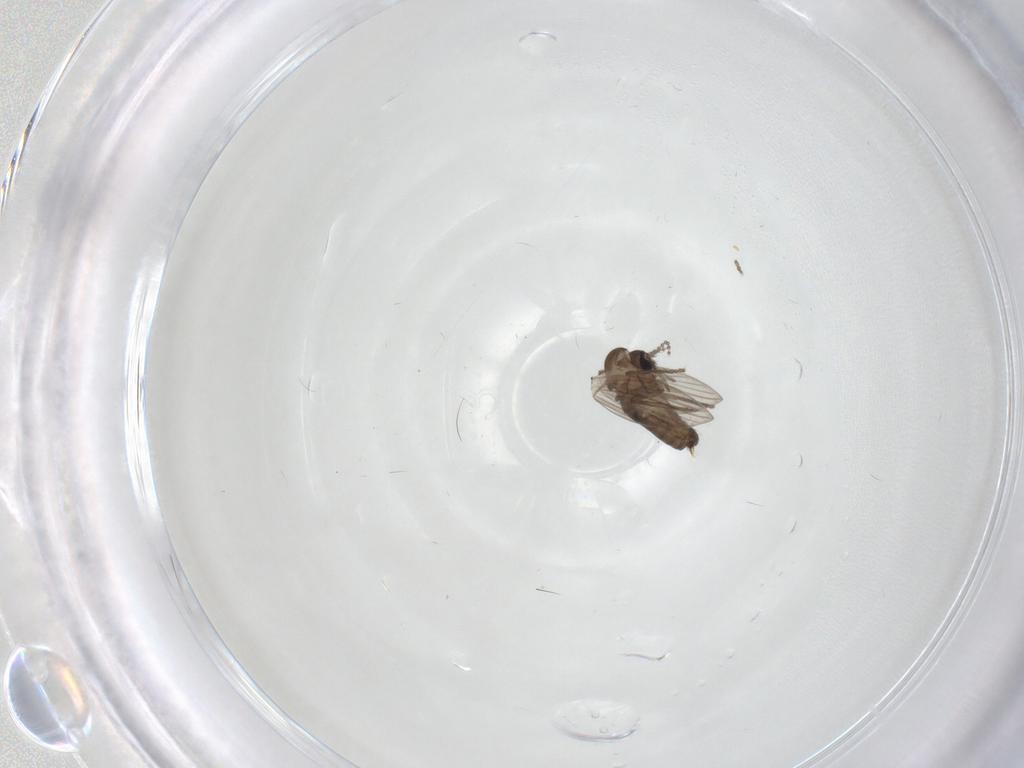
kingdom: Animalia
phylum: Arthropoda
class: Insecta
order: Diptera
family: Psychodidae
